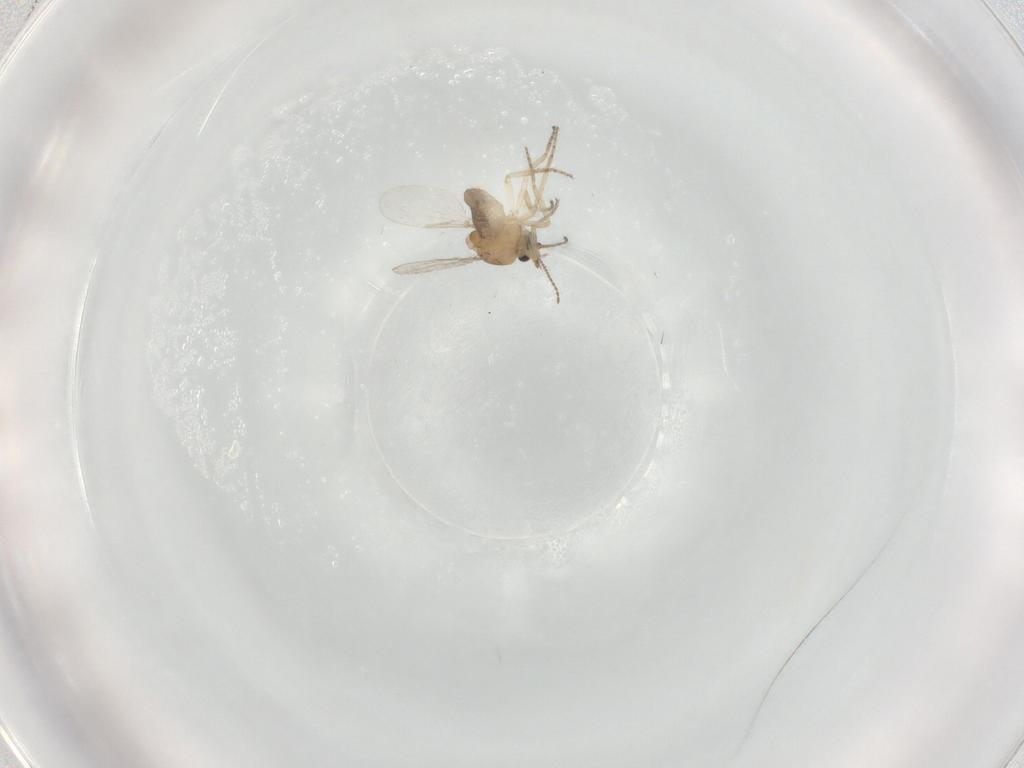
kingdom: Animalia
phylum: Arthropoda
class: Insecta
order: Diptera
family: Ceratopogonidae
